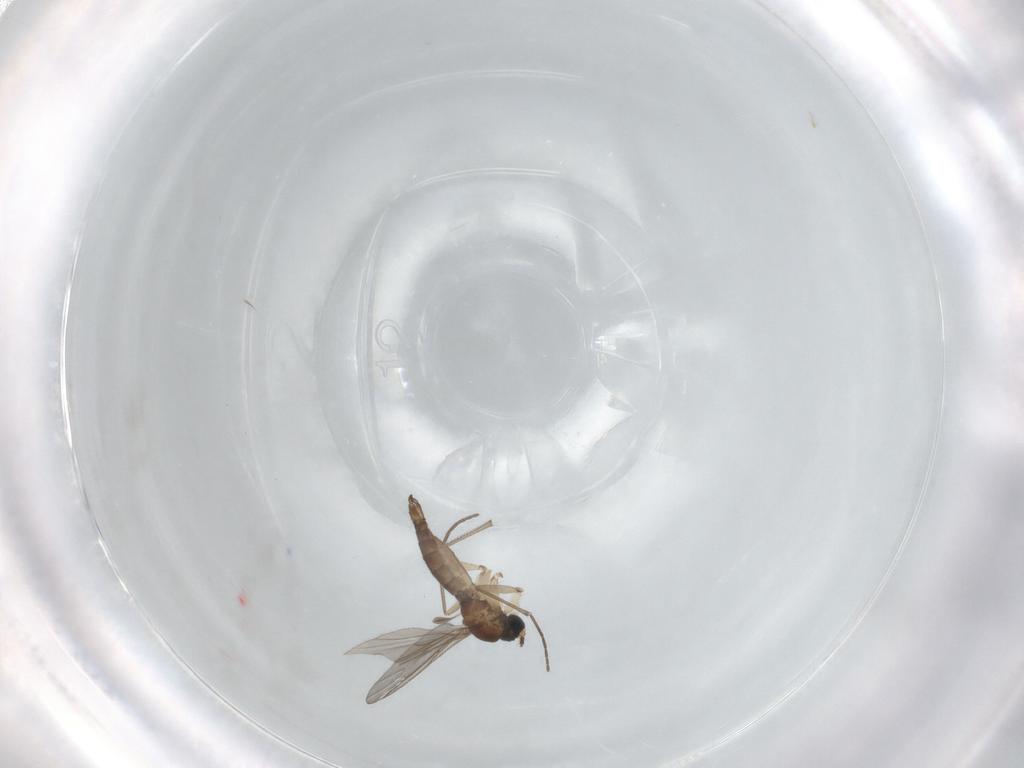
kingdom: Animalia
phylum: Arthropoda
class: Insecta
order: Diptera
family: Sciaridae
